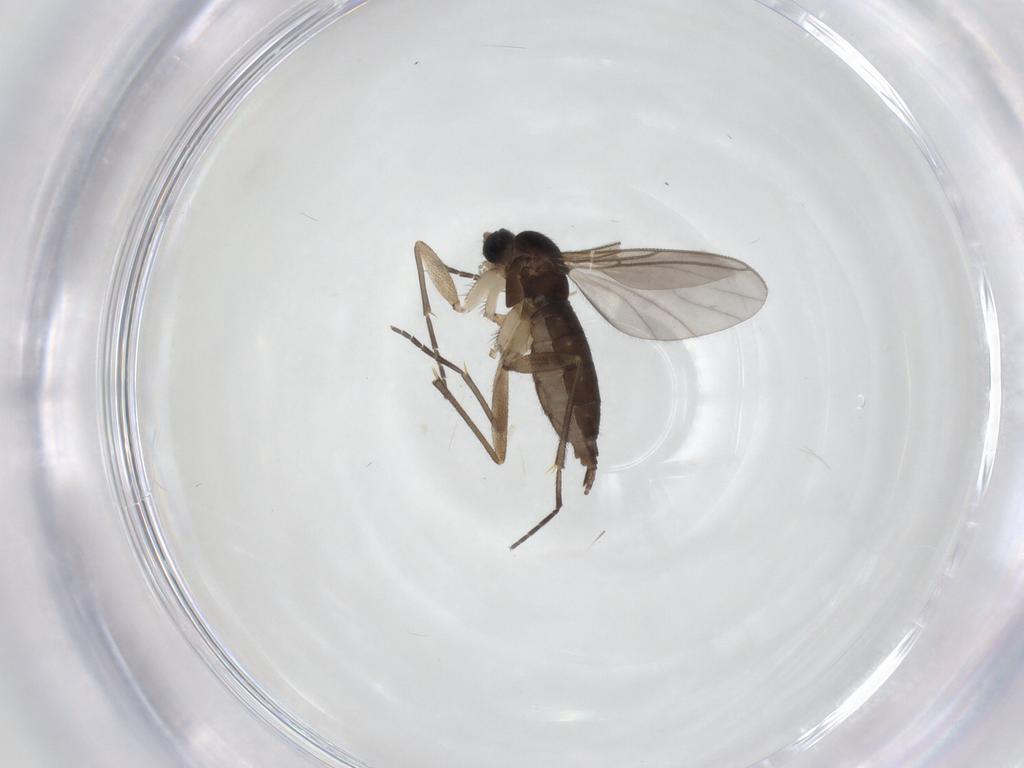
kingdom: Animalia
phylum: Arthropoda
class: Insecta
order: Diptera
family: Sciaridae
